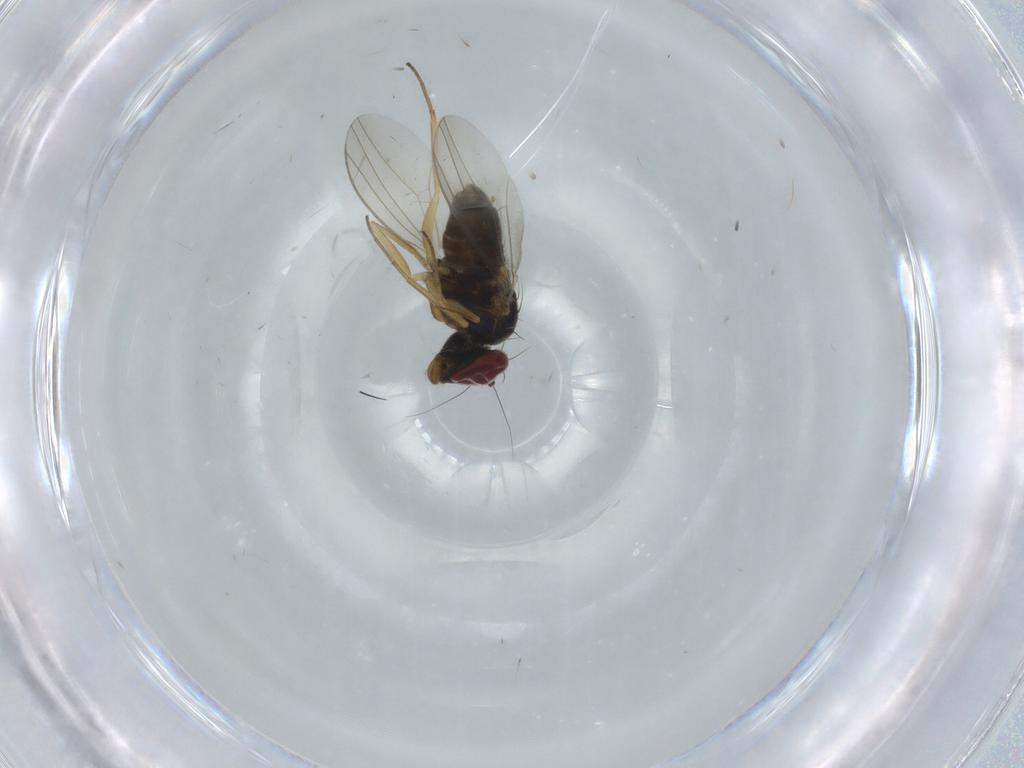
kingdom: Animalia
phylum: Arthropoda
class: Insecta
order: Diptera
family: Dolichopodidae
